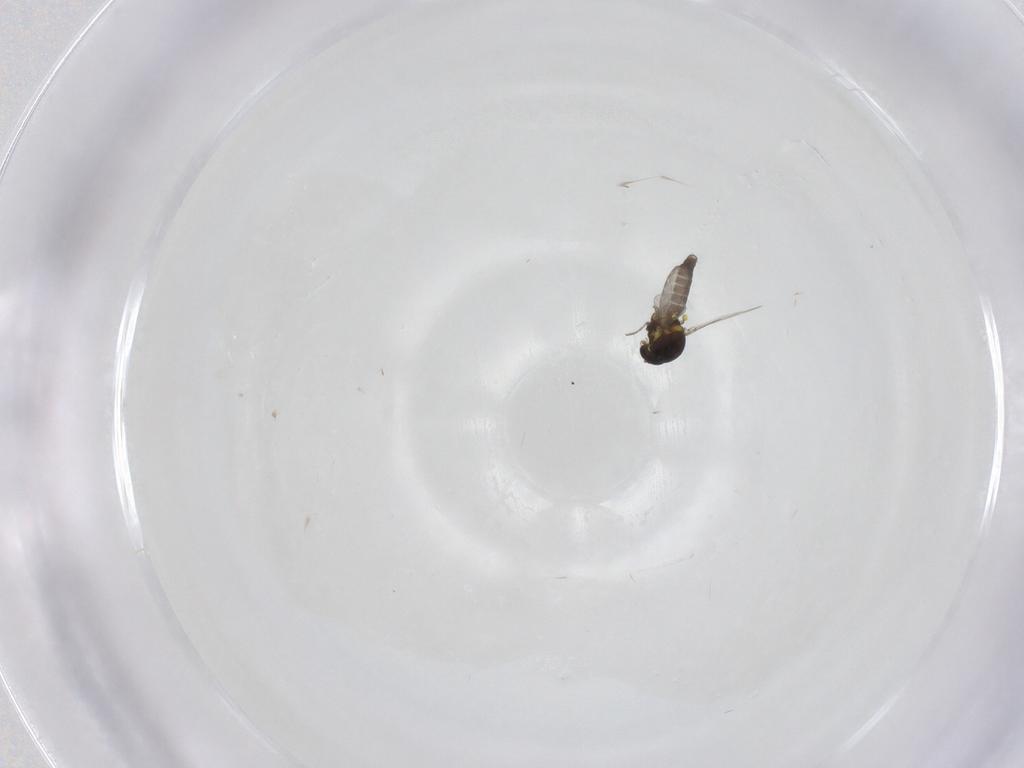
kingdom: Animalia
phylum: Arthropoda
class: Insecta
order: Diptera
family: Ceratopogonidae
